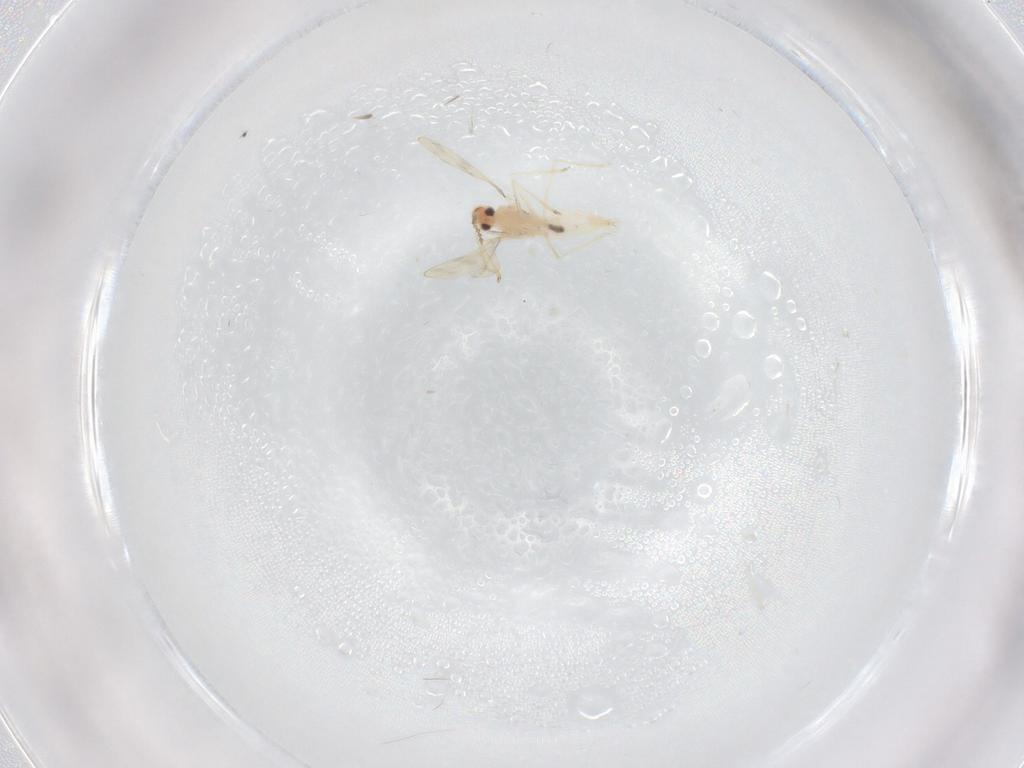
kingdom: Animalia
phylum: Arthropoda
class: Insecta
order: Diptera
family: Cecidomyiidae
